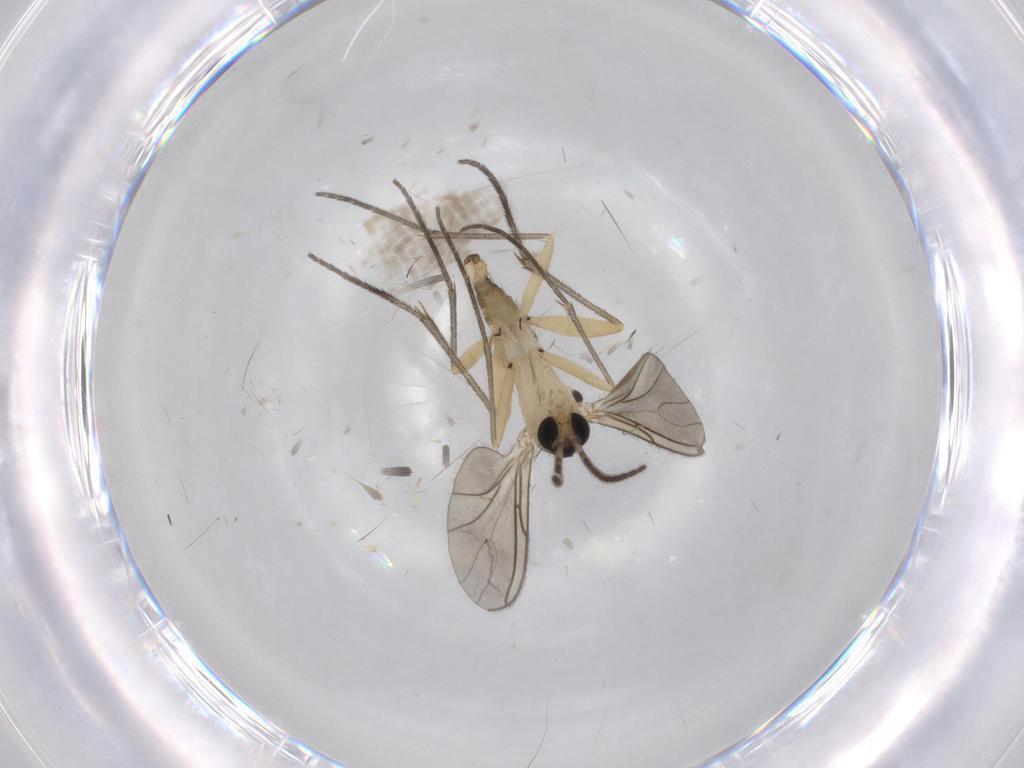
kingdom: Animalia
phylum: Arthropoda
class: Insecta
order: Diptera
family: Sciaridae
